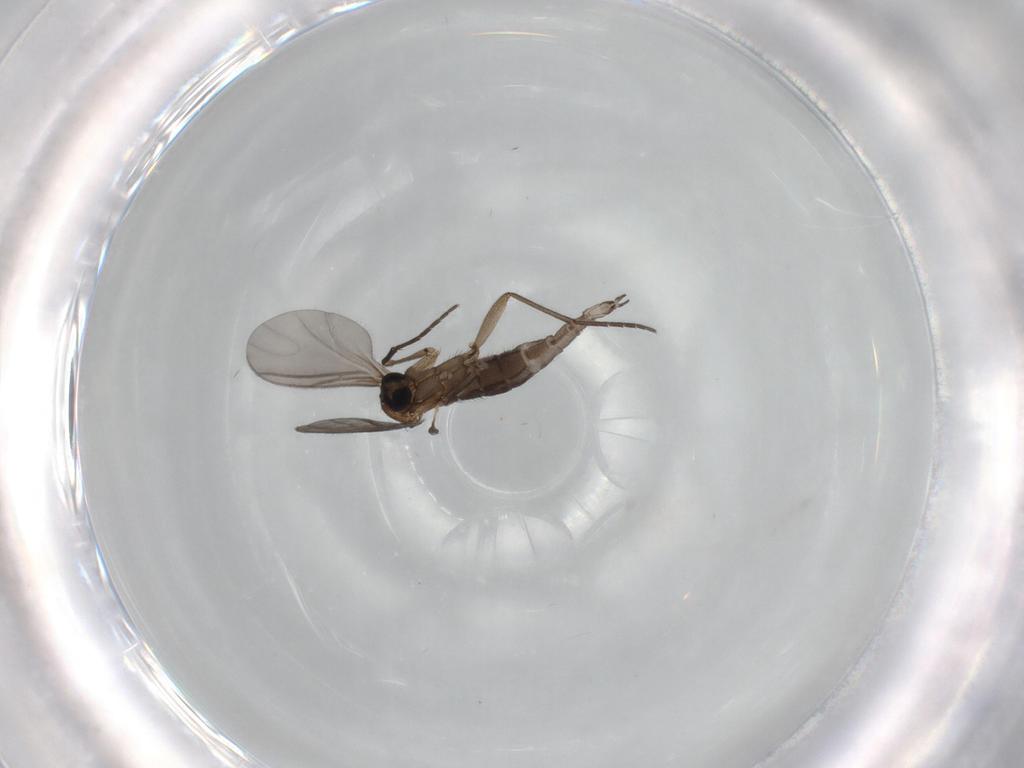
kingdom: Animalia
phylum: Arthropoda
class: Insecta
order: Diptera
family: Sciaridae
